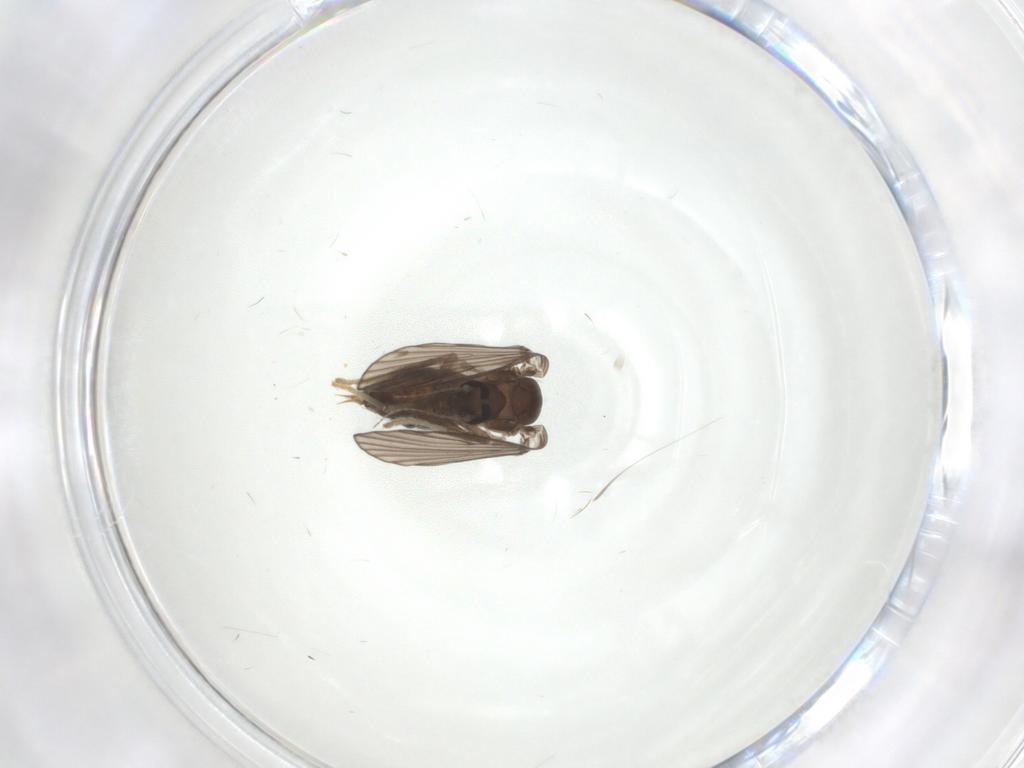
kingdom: Animalia
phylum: Arthropoda
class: Insecta
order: Diptera
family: Psychodidae
